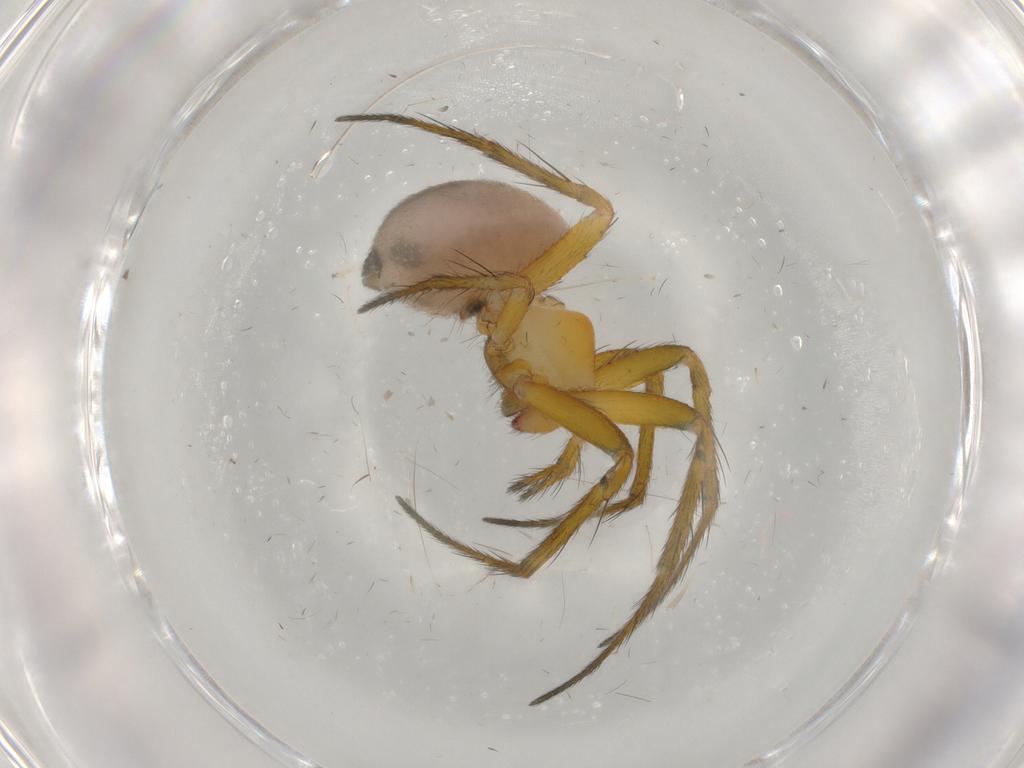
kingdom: Animalia
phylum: Arthropoda
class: Arachnida
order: Araneae
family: Araneidae
